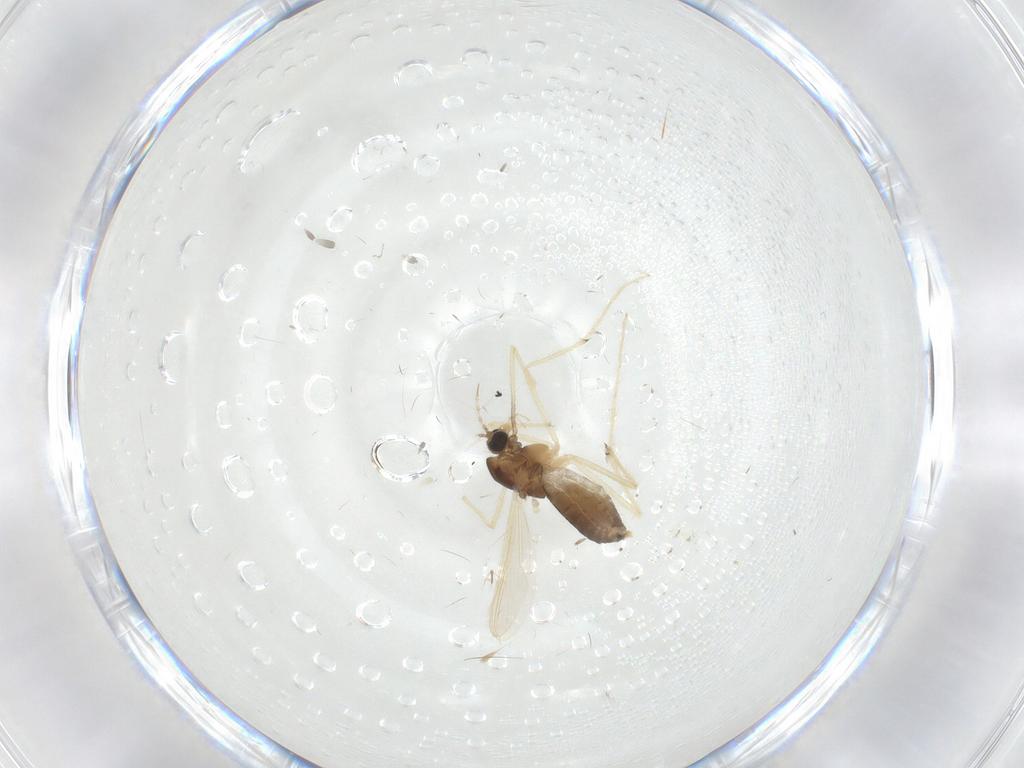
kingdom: Animalia
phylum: Arthropoda
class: Insecta
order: Diptera
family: Chironomidae
